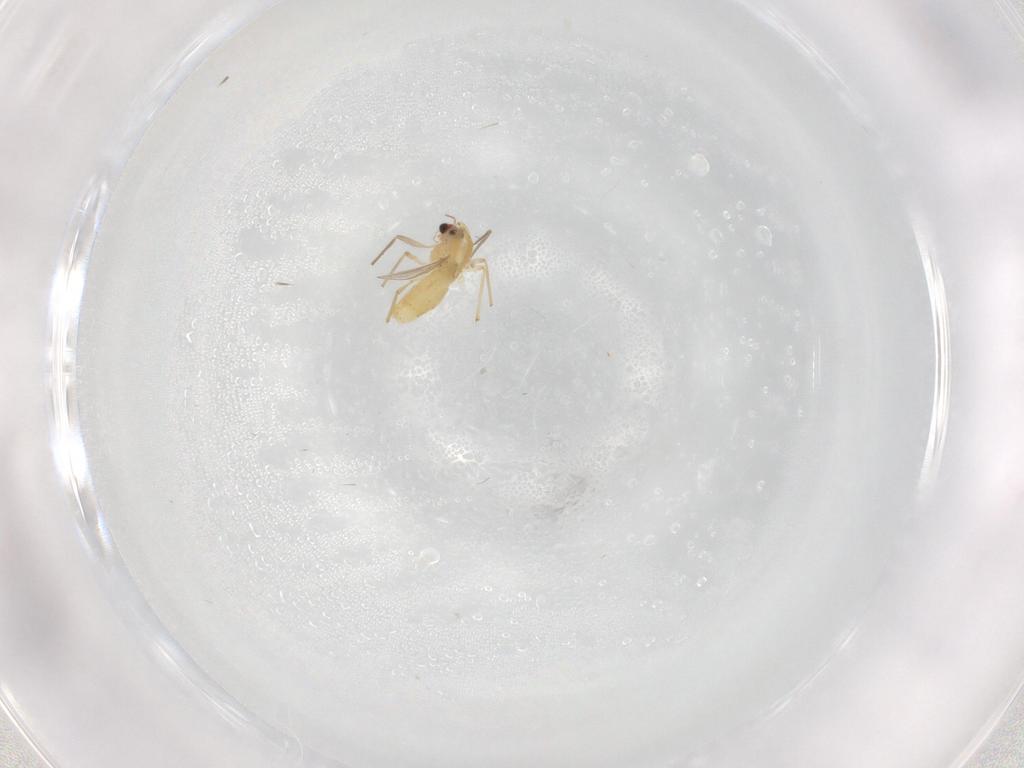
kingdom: Animalia
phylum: Arthropoda
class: Insecta
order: Diptera
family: Chironomidae
